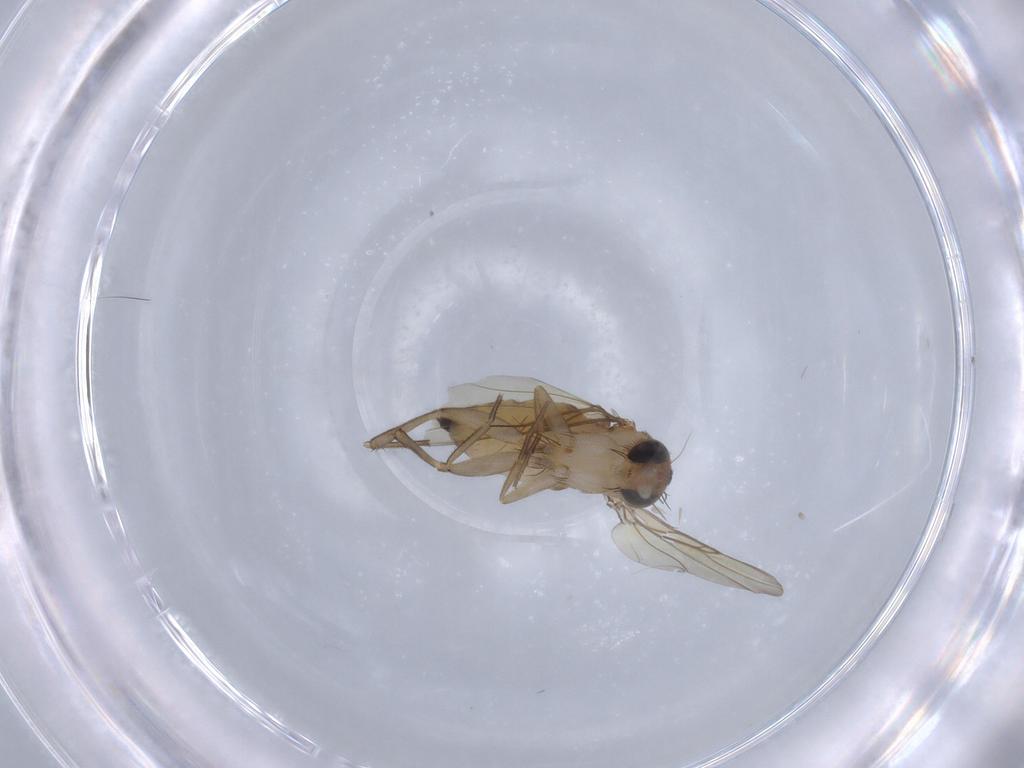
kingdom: Animalia
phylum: Arthropoda
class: Insecta
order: Diptera
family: Phoridae
